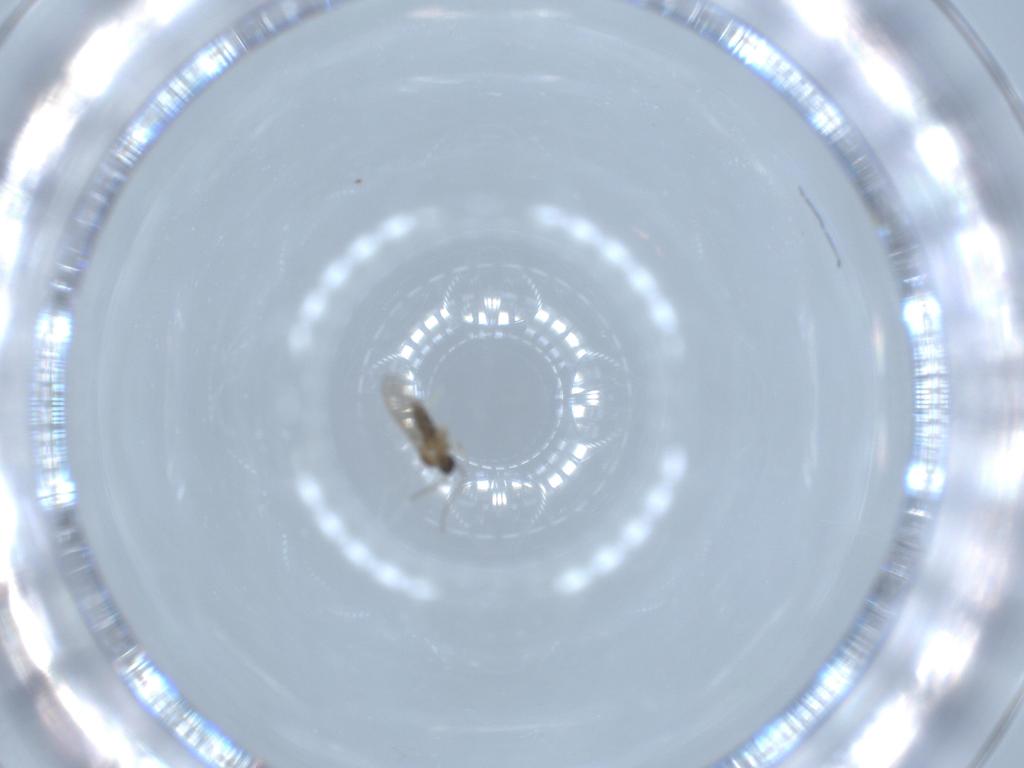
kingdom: Animalia
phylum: Arthropoda
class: Insecta
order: Diptera
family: Cecidomyiidae
